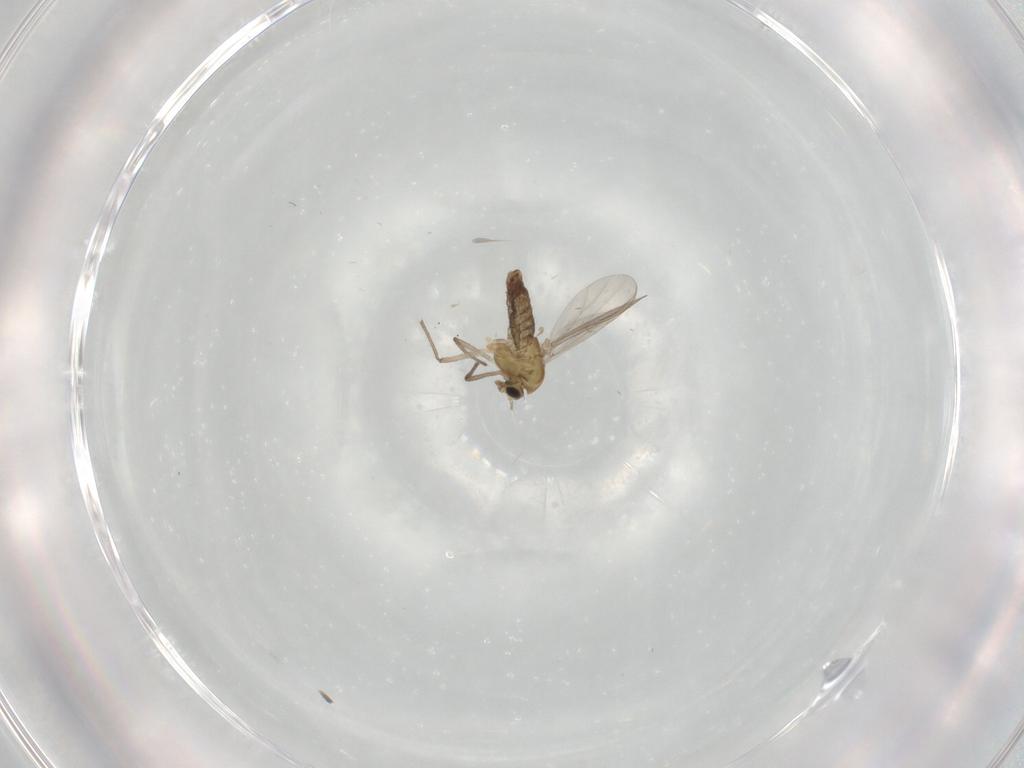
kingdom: Animalia
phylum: Arthropoda
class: Insecta
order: Diptera
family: Chironomidae
